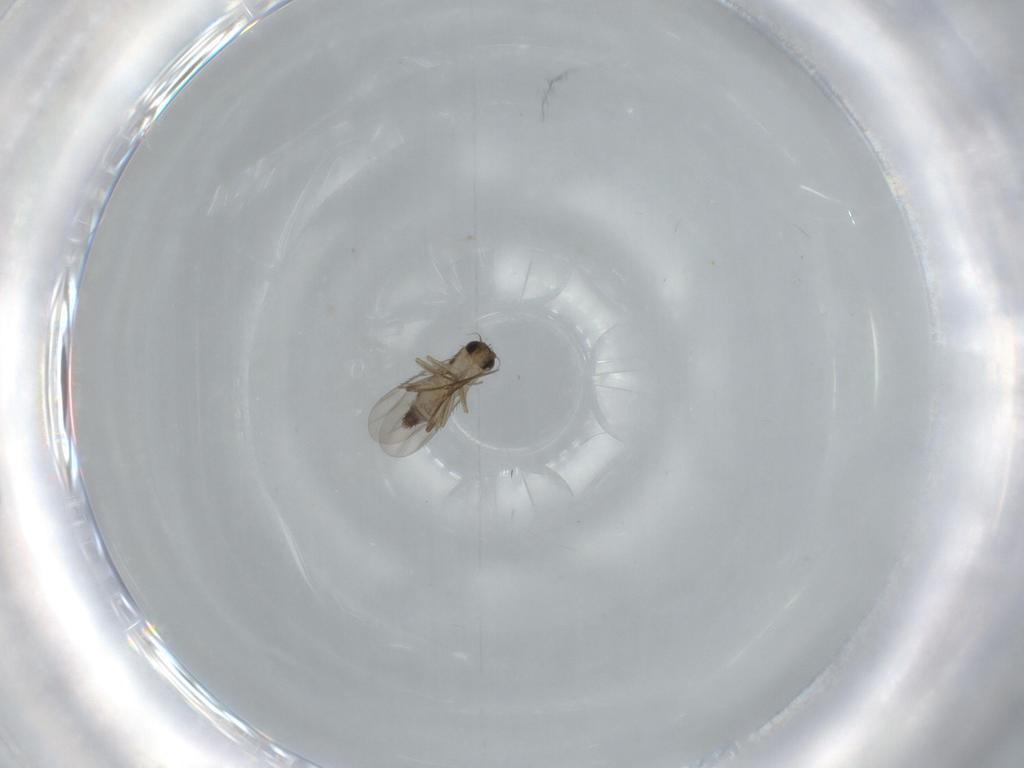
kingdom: Animalia
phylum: Arthropoda
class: Insecta
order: Diptera
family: Phoridae
